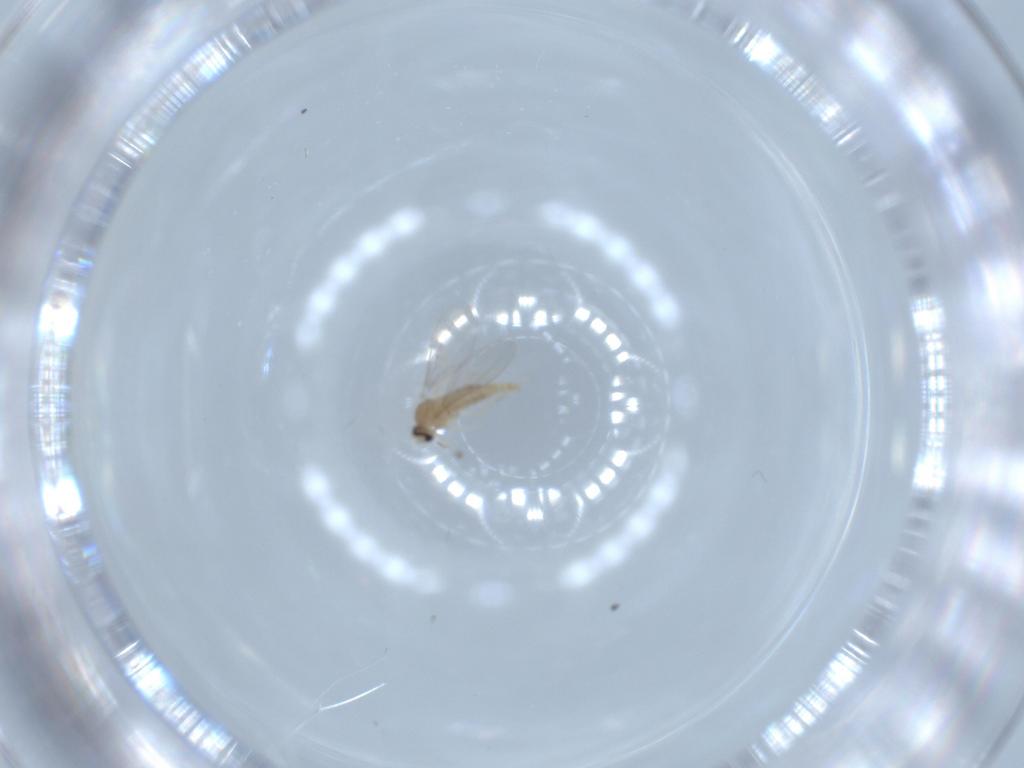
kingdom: Animalia
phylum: Arthropoda
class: Insecta
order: Diptera
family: Cecidomyiidae
